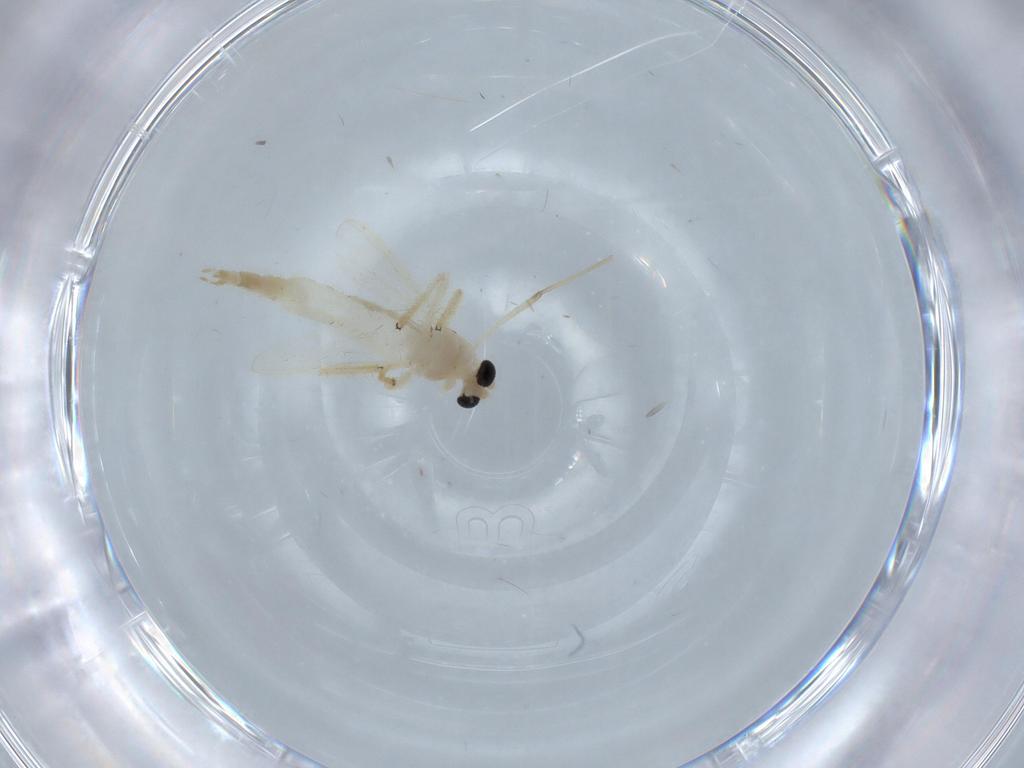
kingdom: Animalia
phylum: Arthropoda
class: Insecta
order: Diptera
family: Chironomidae
